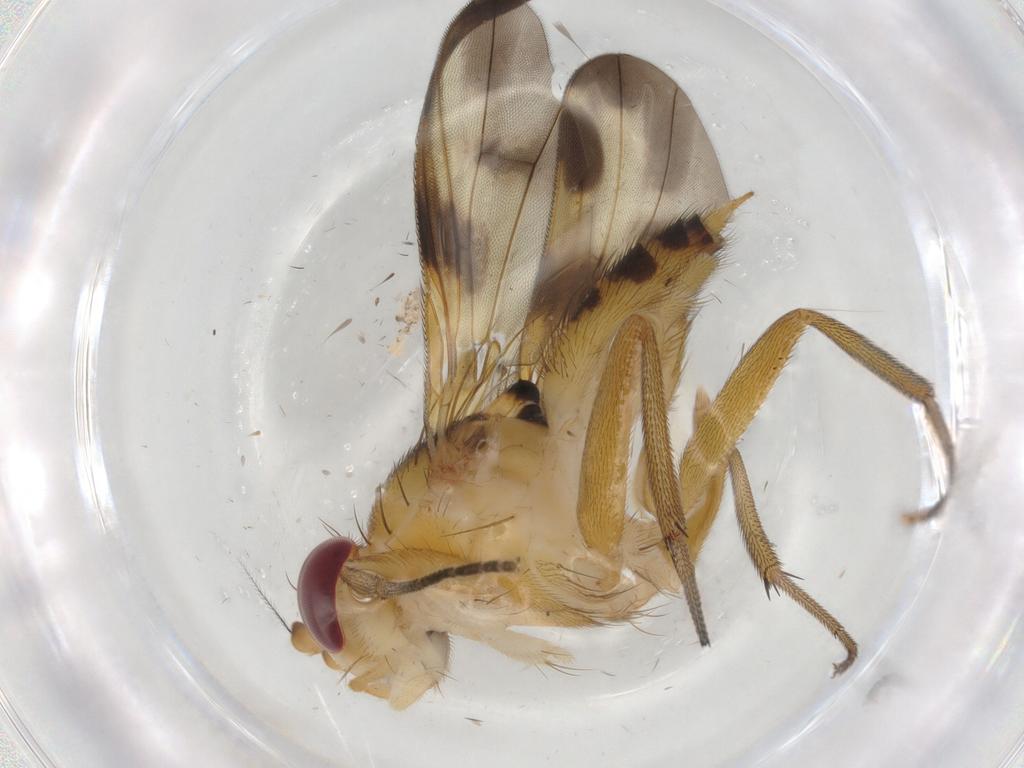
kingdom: Animalia
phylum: Arthropoda
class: Insecta
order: Diptera
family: Clusiidae
